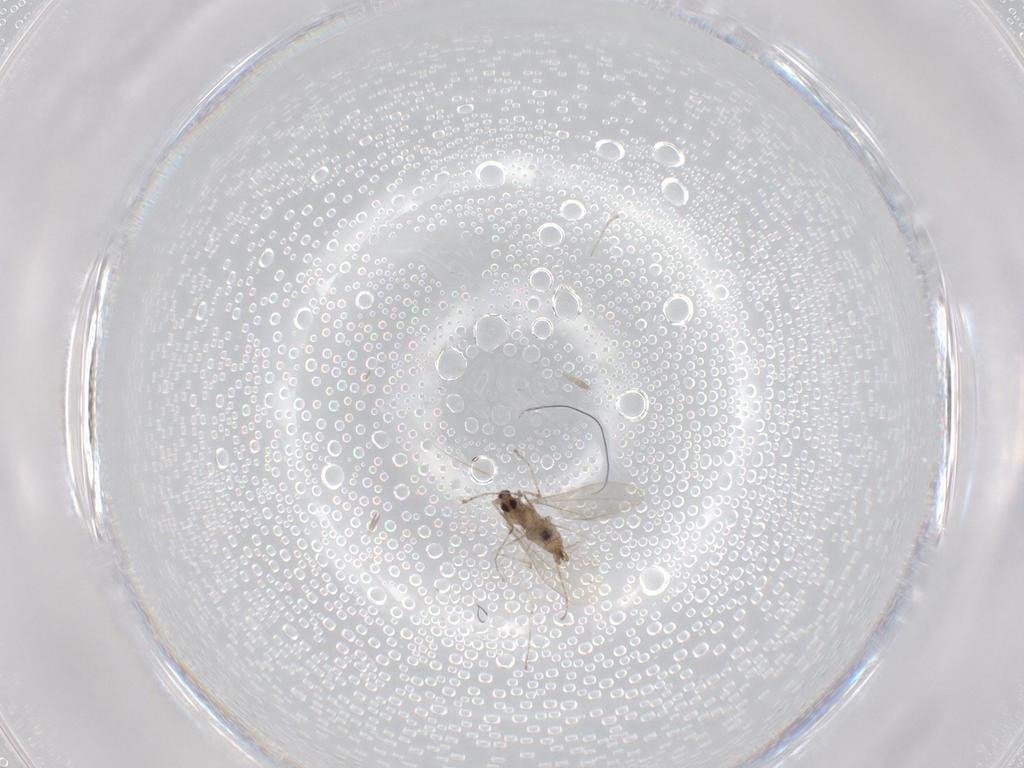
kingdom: Animalia
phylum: Arthropoda
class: Insecta
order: Diptera
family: Cecidomyiidae
